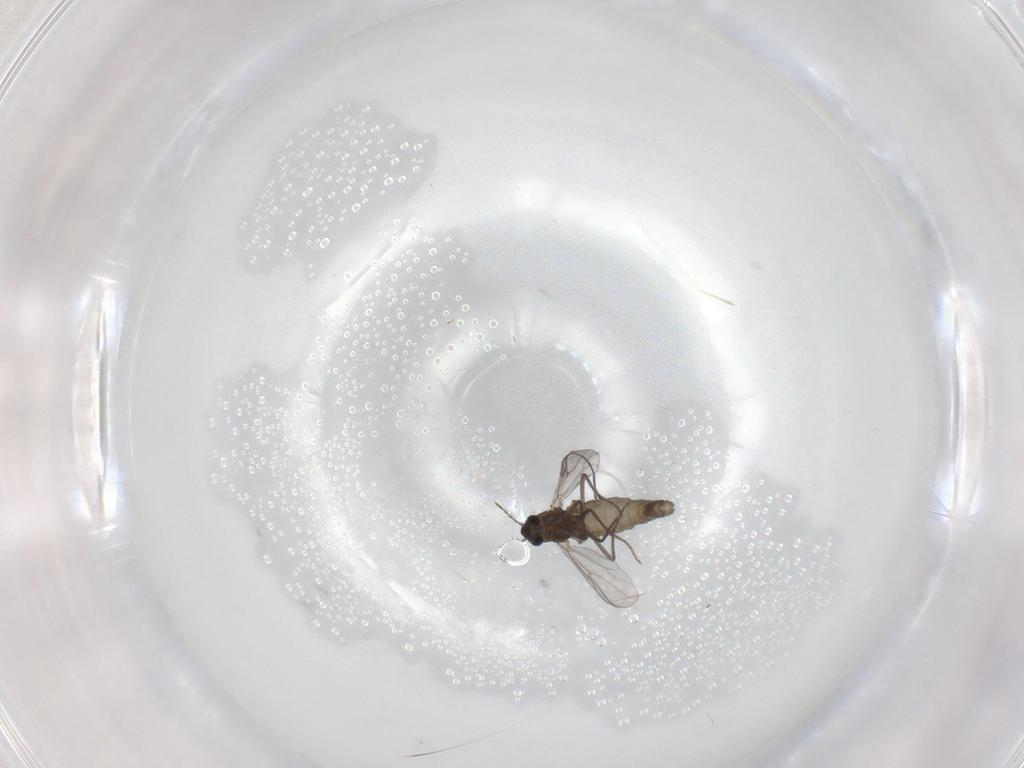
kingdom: Animalia
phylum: Arthropoda
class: Insecta
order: Diptera
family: Chironomidae
